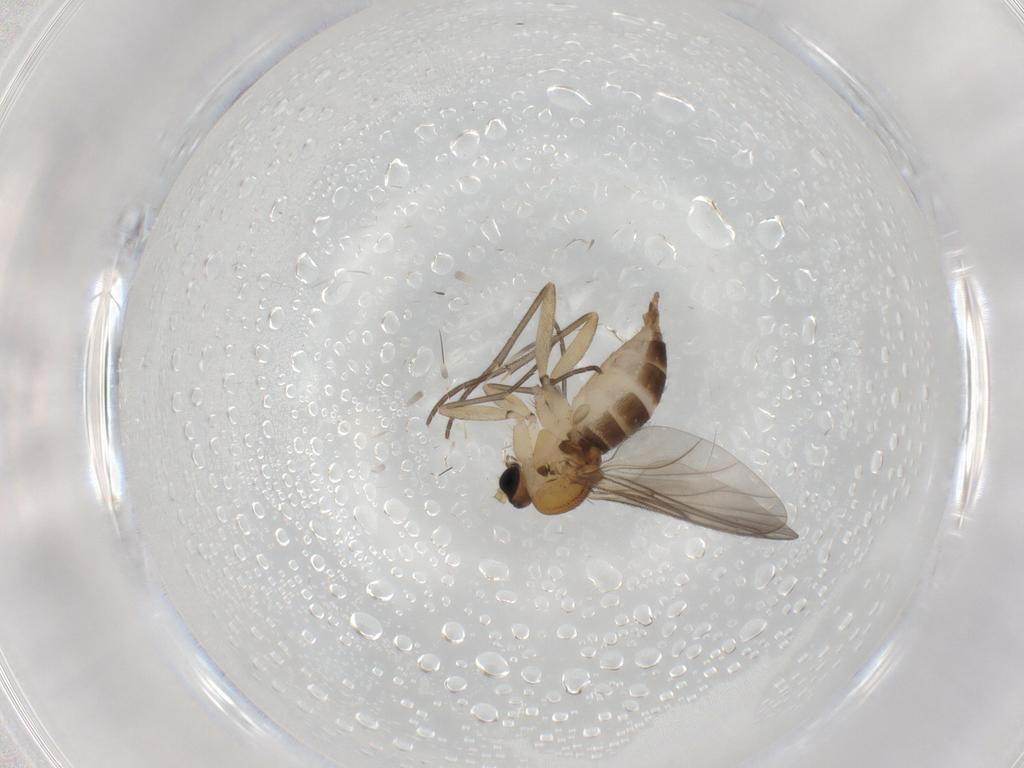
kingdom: Animalia
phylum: Arthropoda
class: Insecta
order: Diptera
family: Sciaridae
